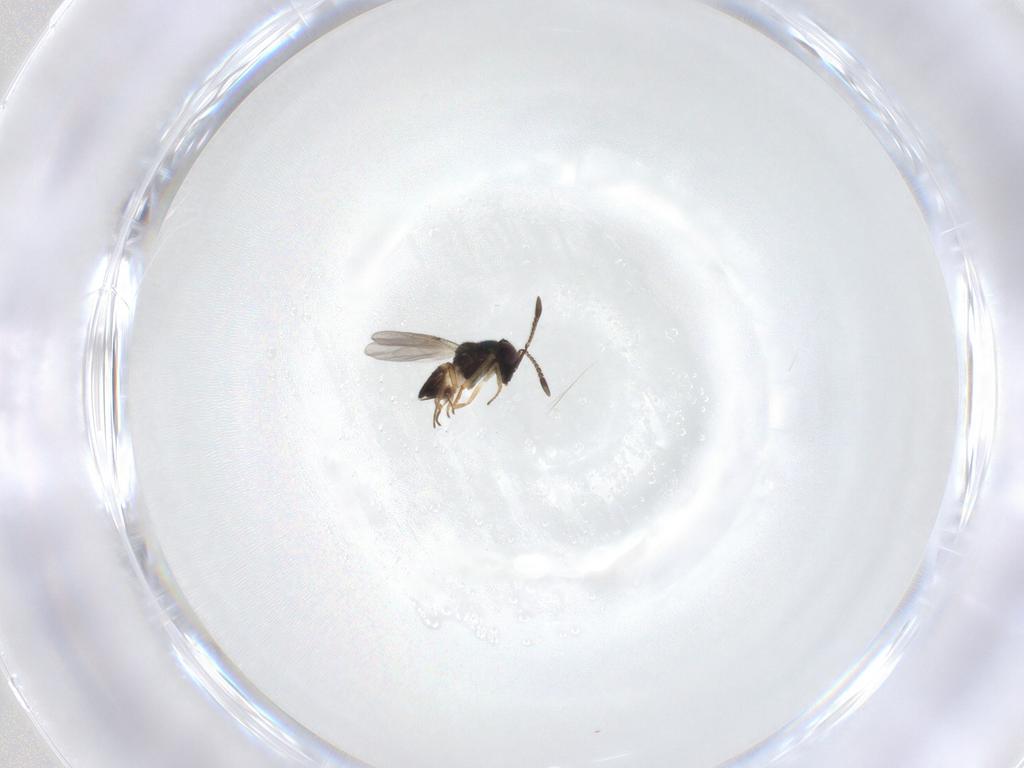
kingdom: Animalia
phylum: Arthropoda
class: Insecta
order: Diptera
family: Xylomyidae
